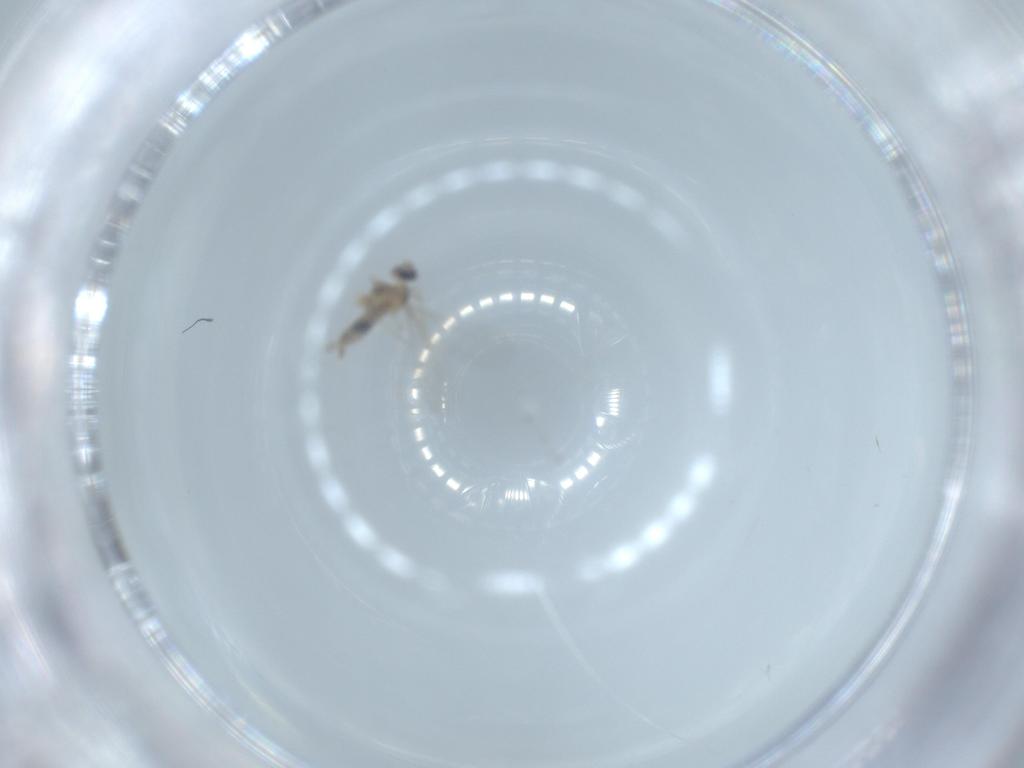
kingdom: Animalia
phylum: Arthropoda
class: Insecta
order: Diptera
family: Cecidomyiidae
